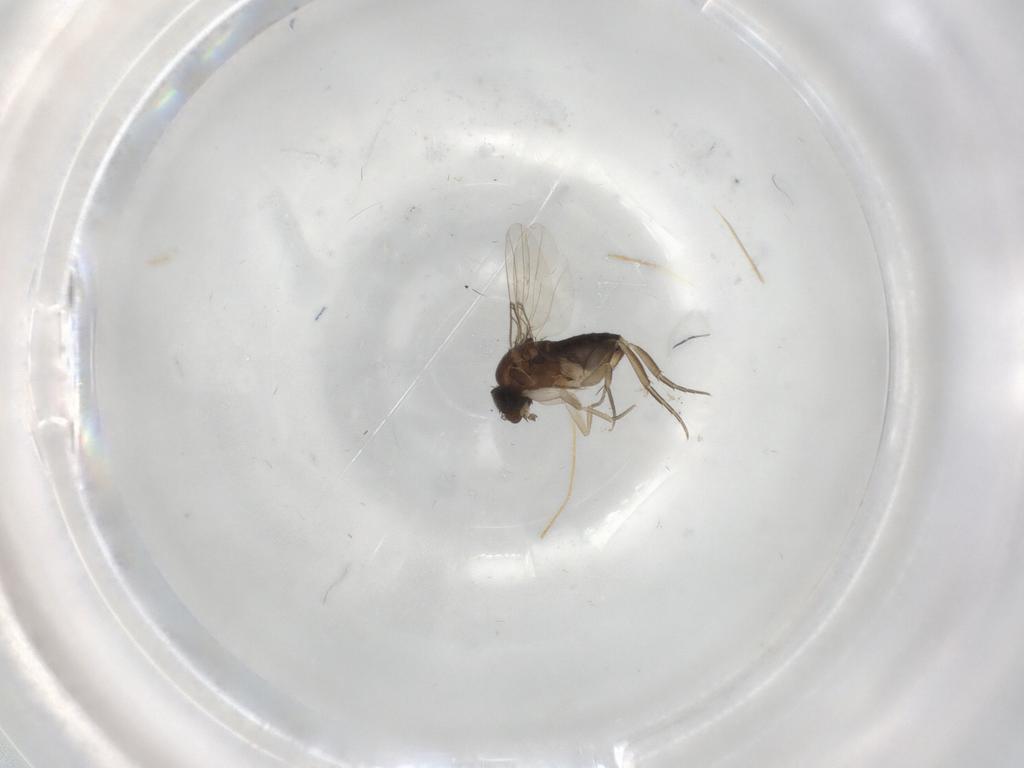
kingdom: Animalia
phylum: Arthropoda
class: Insecta
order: Diptera
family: Phoridae
